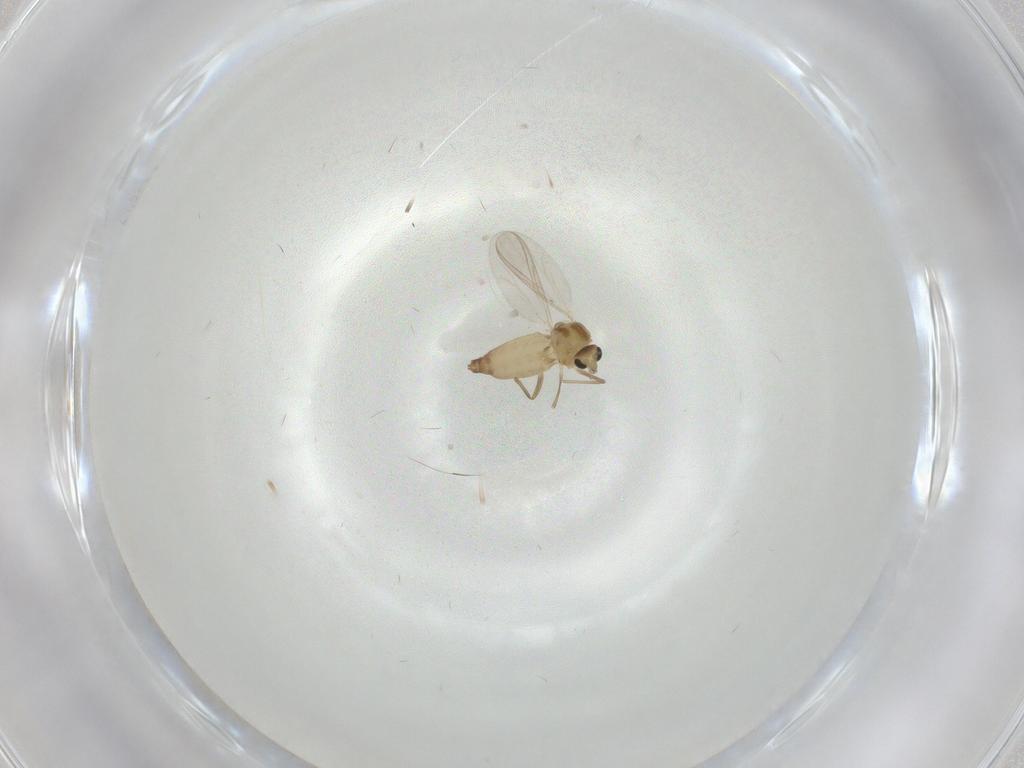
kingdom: Animalia
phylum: Arthropoda
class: Insecta
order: Diptera
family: Chironomidae
